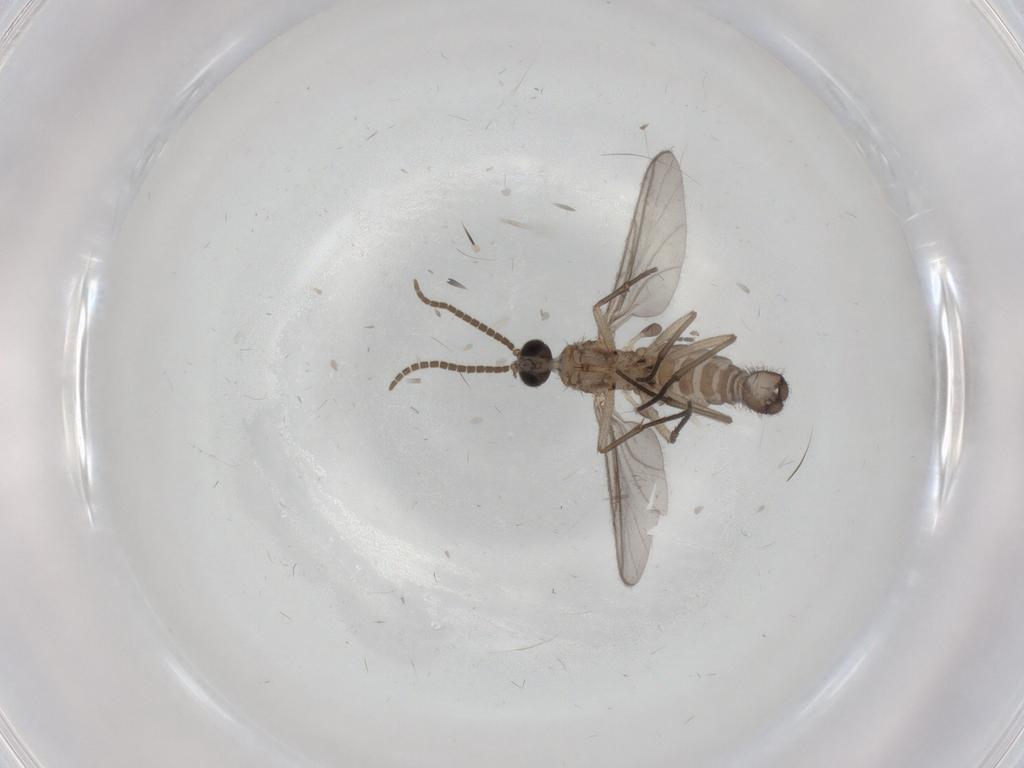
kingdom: Animalia
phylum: Arthropoda
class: Insecta
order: Diptera
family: Sciaridae
